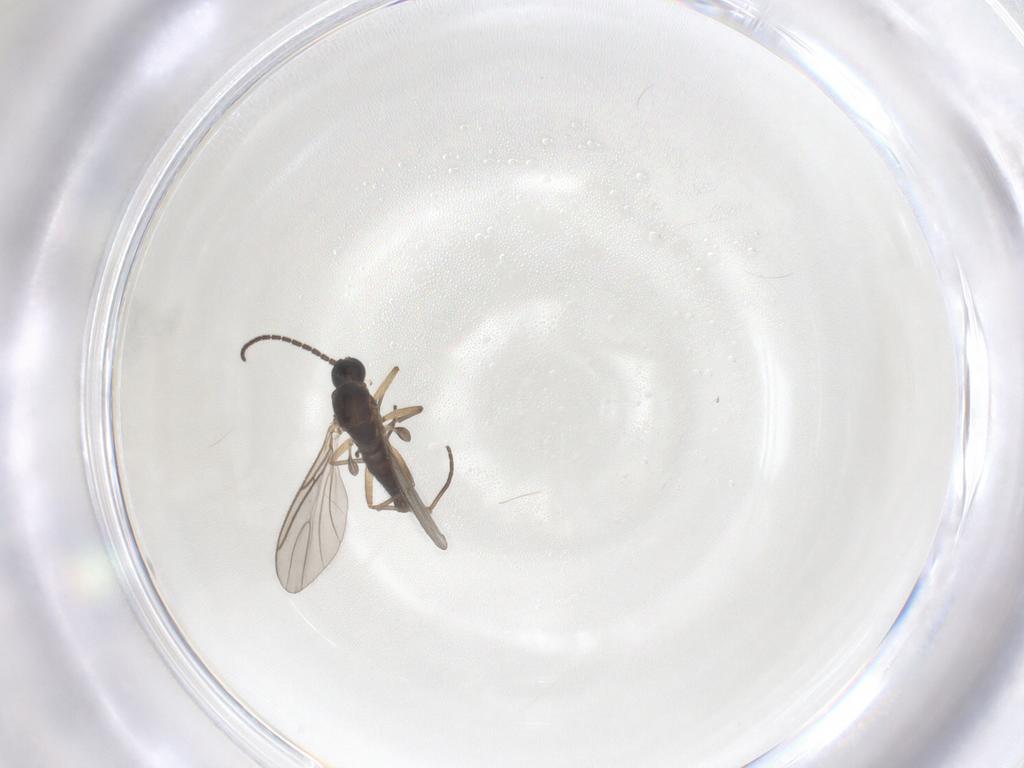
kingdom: Animalia
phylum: Arthropoda
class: Insecta
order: Diptera
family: Sciaridae
